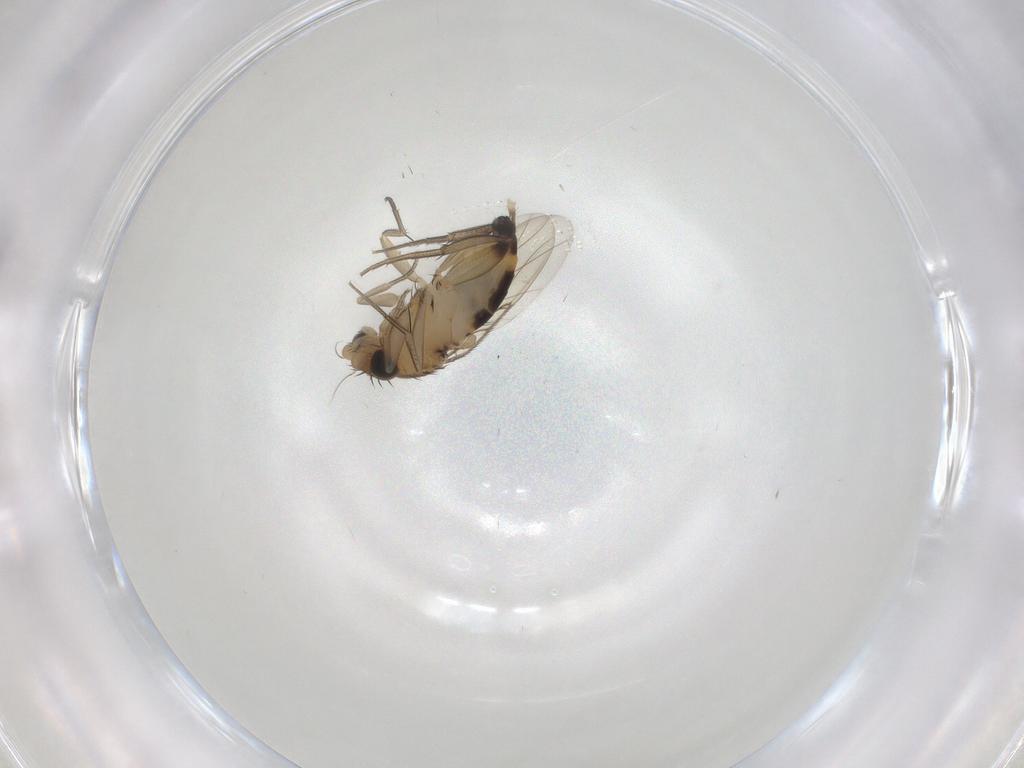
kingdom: Animalia
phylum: Arthropoda
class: Insecta
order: Diptera
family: Phoridae
